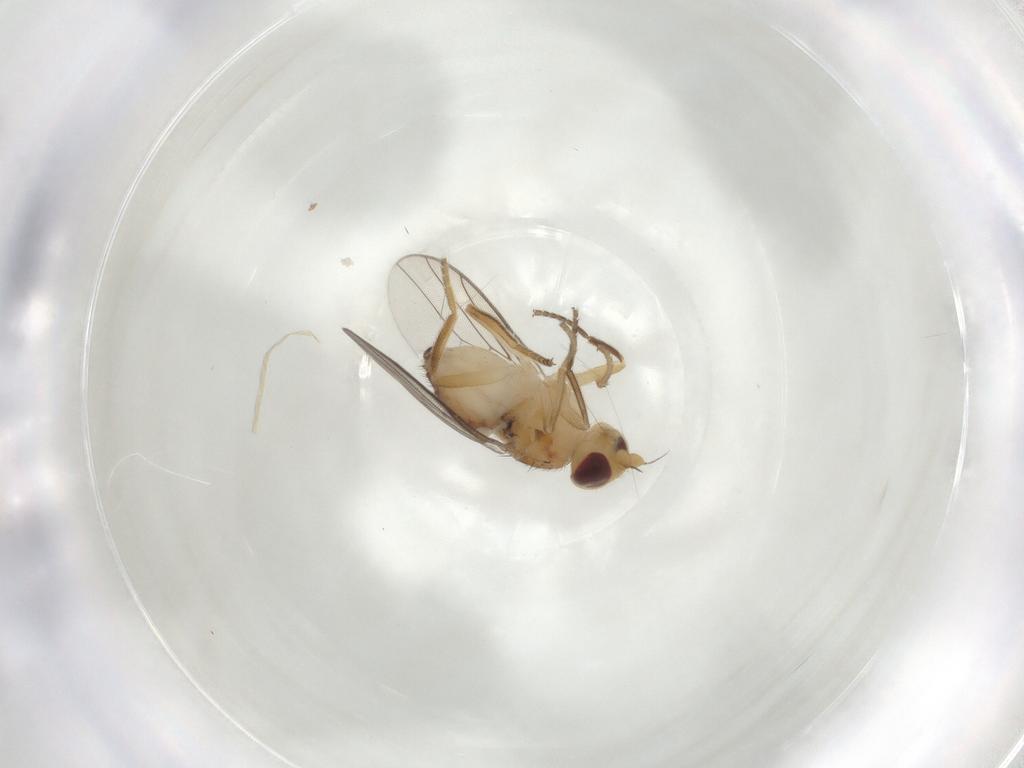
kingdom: Animalia
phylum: Arthropoda
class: Insecta
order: Diptera
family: Chloropidae
